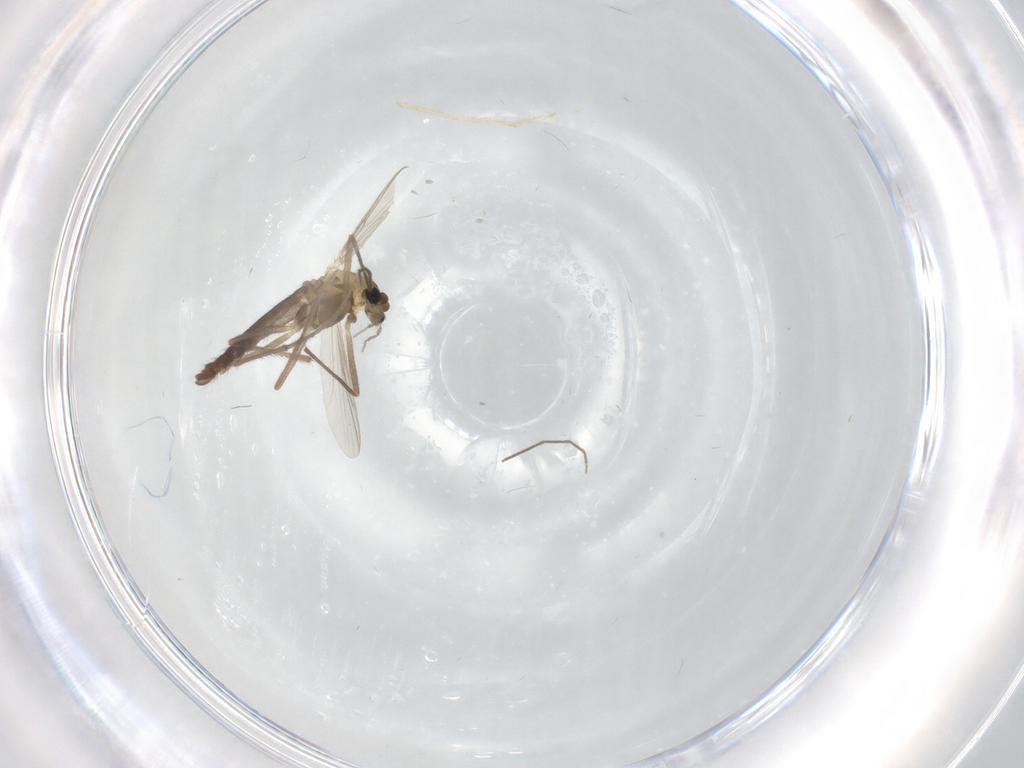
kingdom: Animalia
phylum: Arthropoda
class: Insecta
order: Diptera
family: Chironomidae
